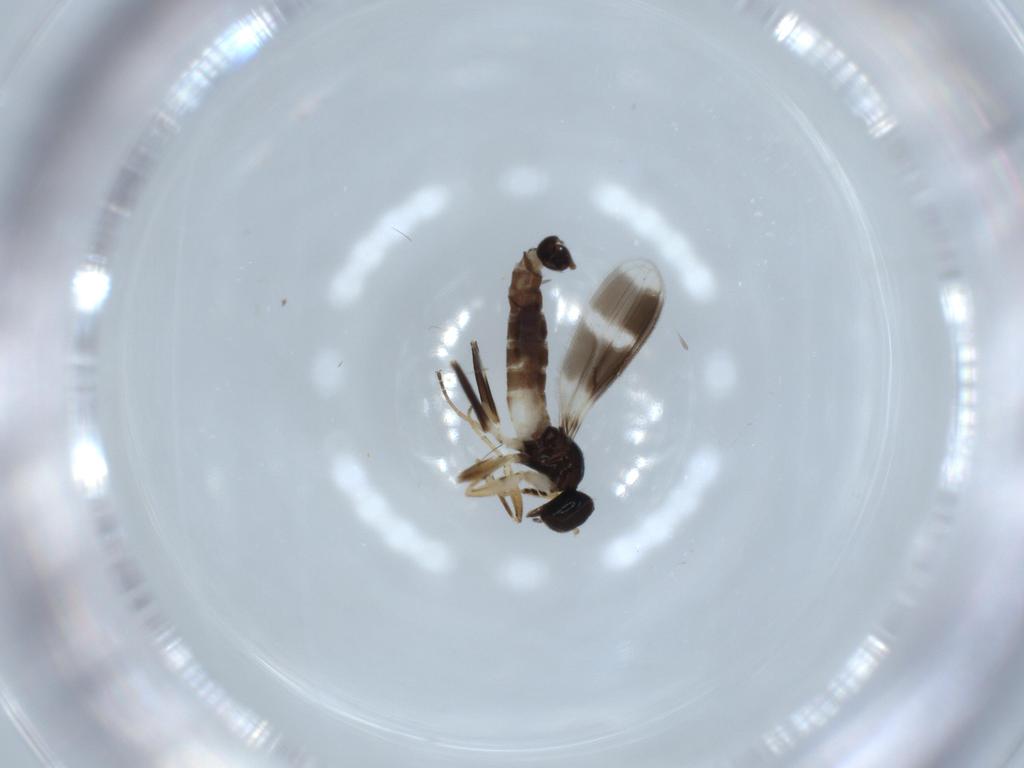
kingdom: Animalia
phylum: Arthropoda
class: Insecta
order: Diptera
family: Hybotidae
